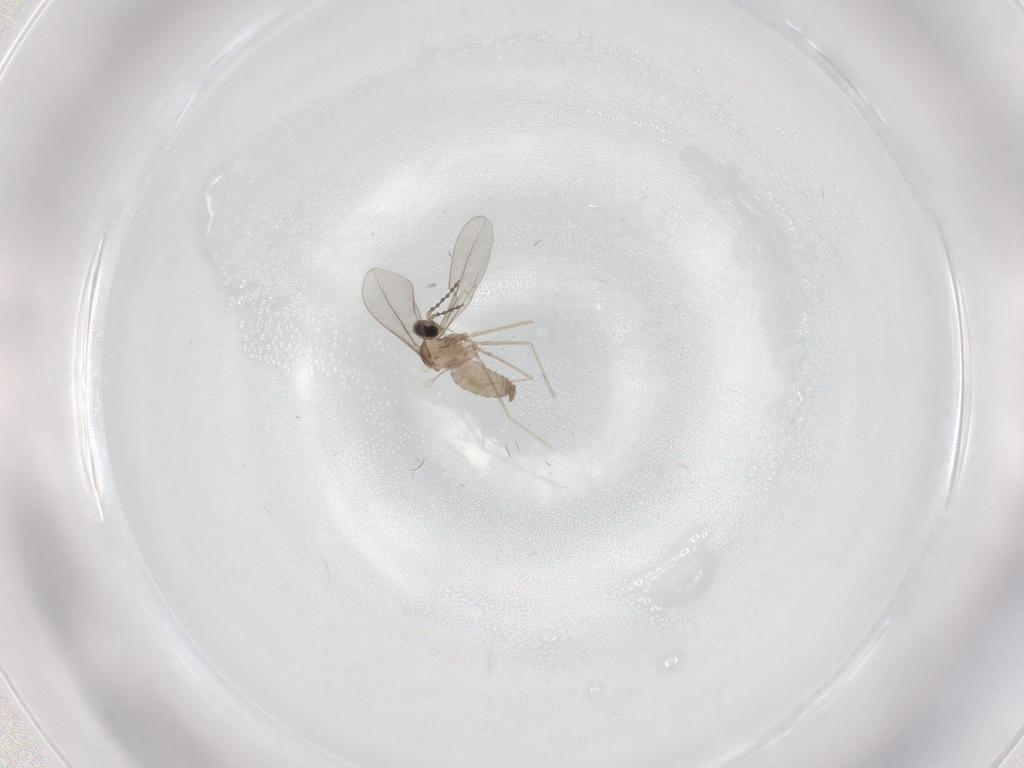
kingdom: Animalia
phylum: Arthropoda
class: Insecta
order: Diptera
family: Cecidomyiidae
